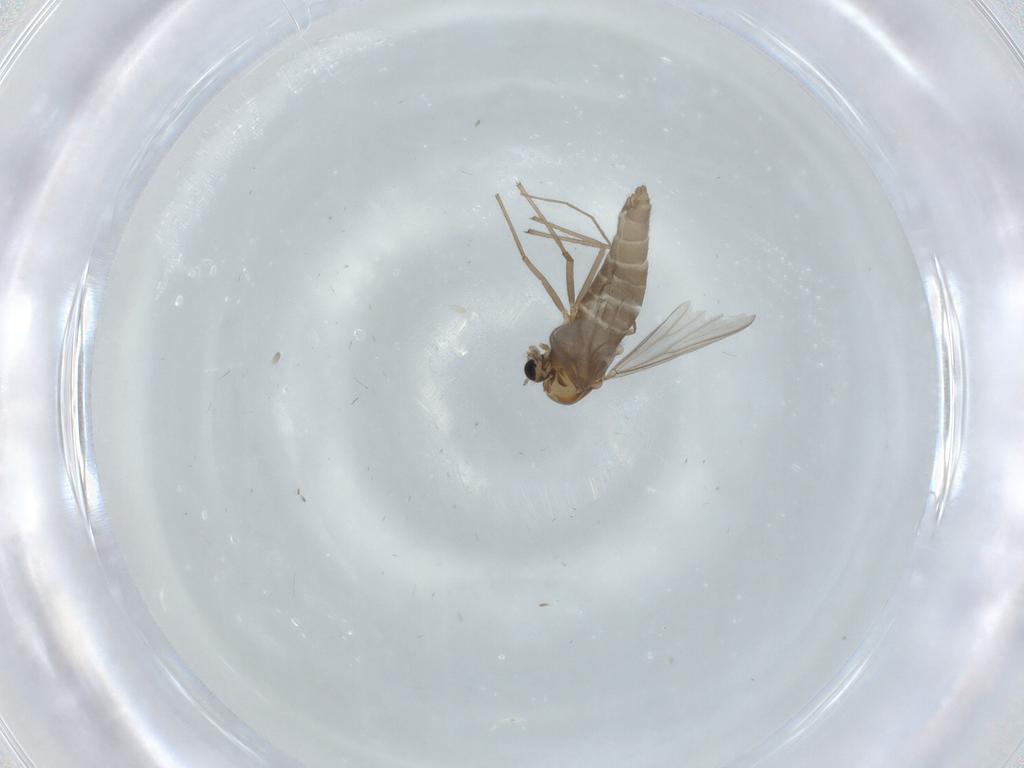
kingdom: Animalia
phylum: Arthropoda
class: Insecta
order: Diptera
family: Chironomidae
